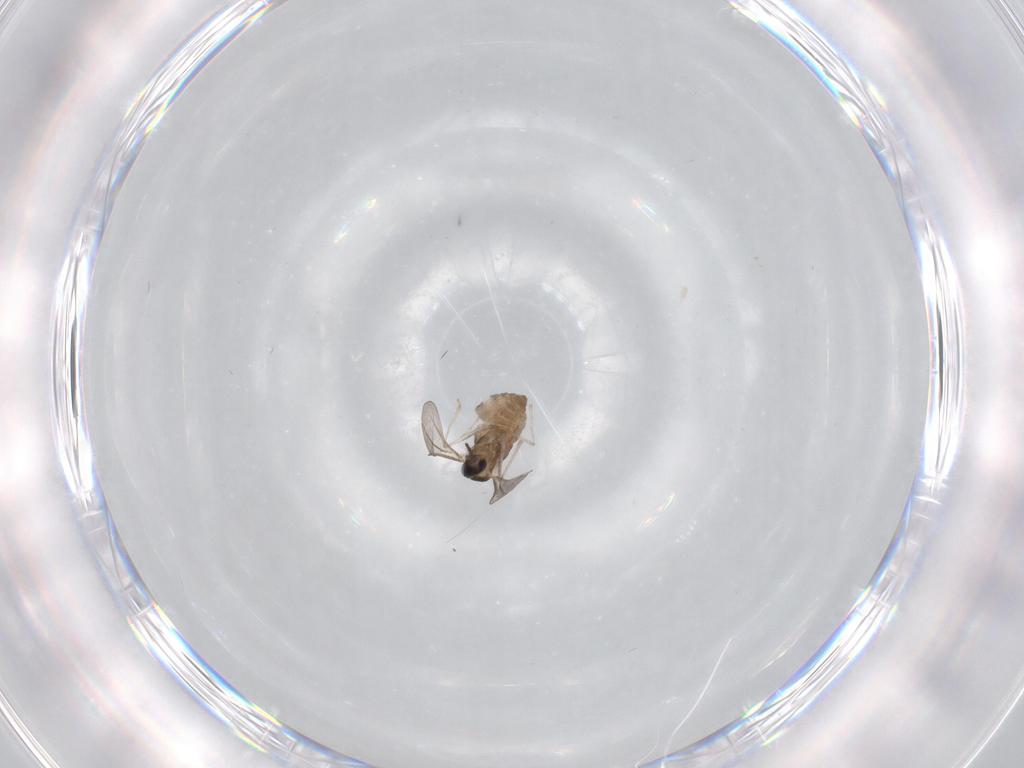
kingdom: Animalia
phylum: Arthropoda
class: Insecta
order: Diptera
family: Cecidomyiidae
